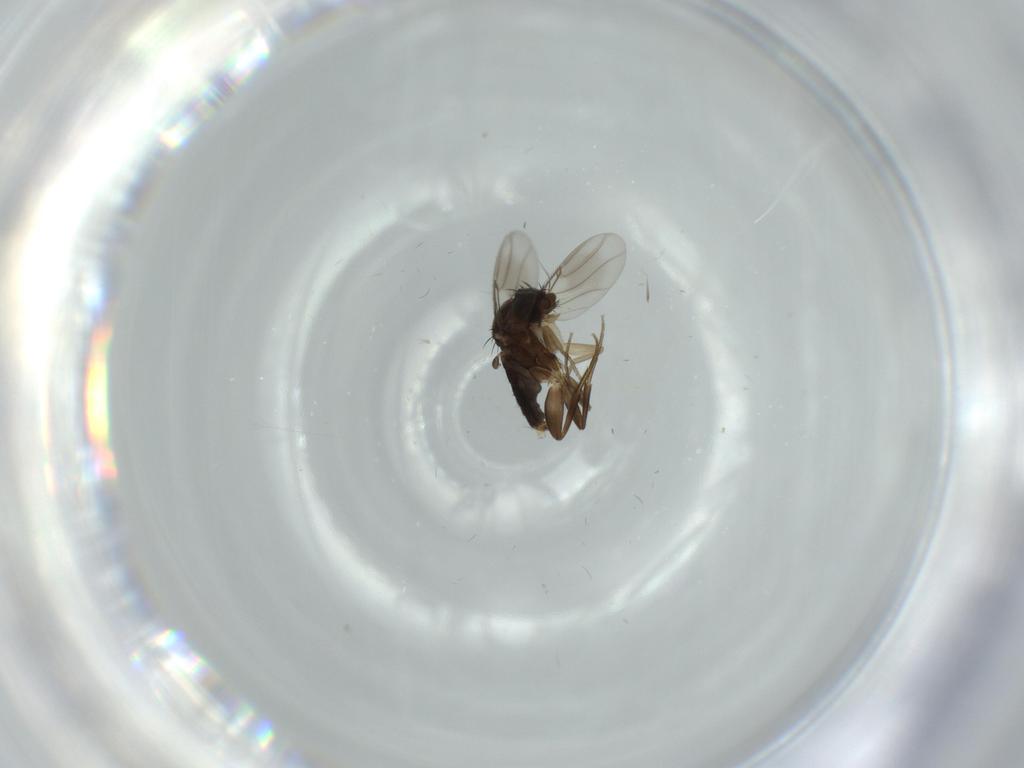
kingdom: Animalia
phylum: Arthropoda
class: Insecta
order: Diptera
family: Phoridae
